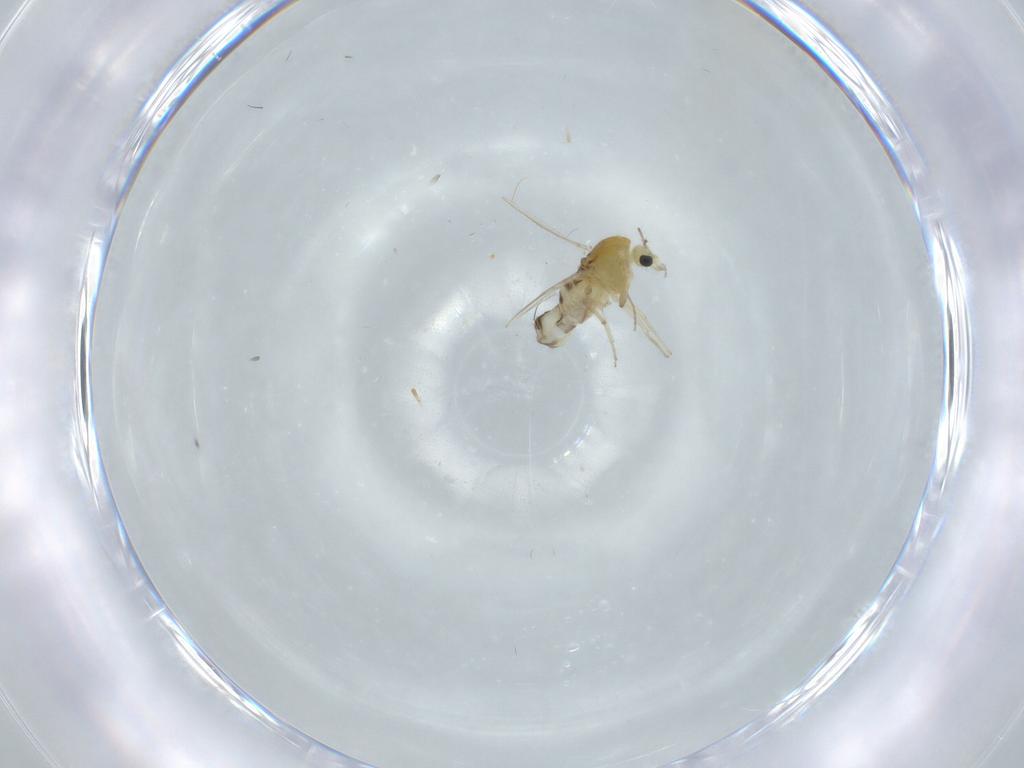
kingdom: Animalia
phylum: Arthropoda
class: Insecta
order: Diptera
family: Chironomidae
